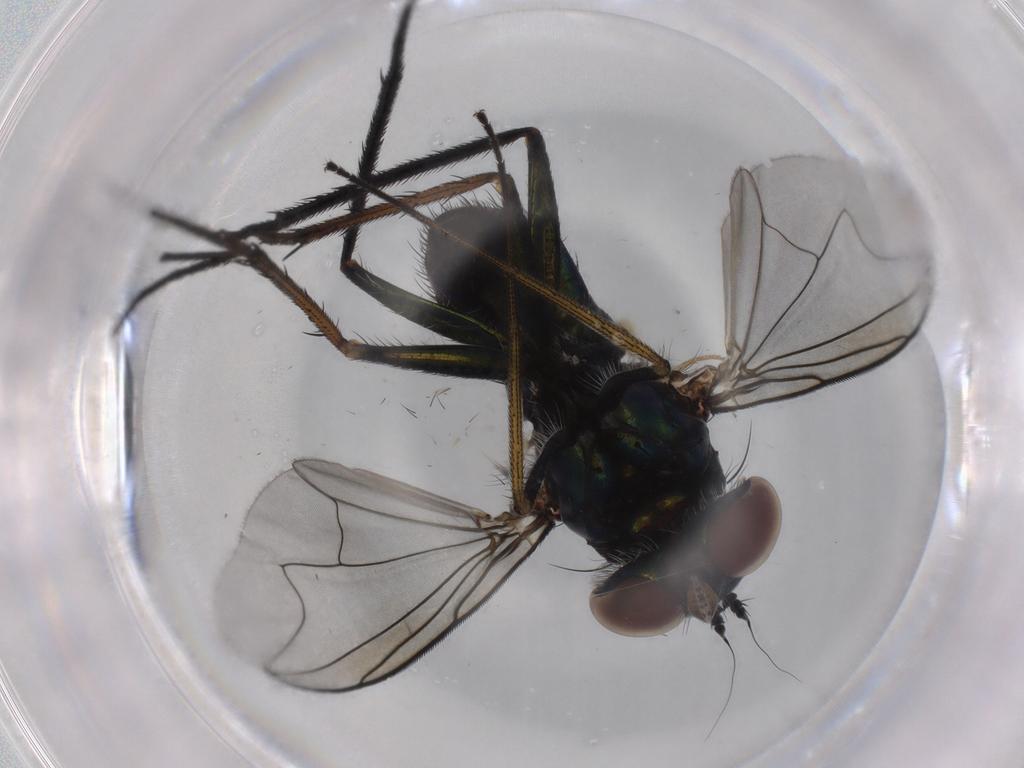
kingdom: Animalia
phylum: Arthropoda
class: Insecta
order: Diptera
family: Dolichopodidae
